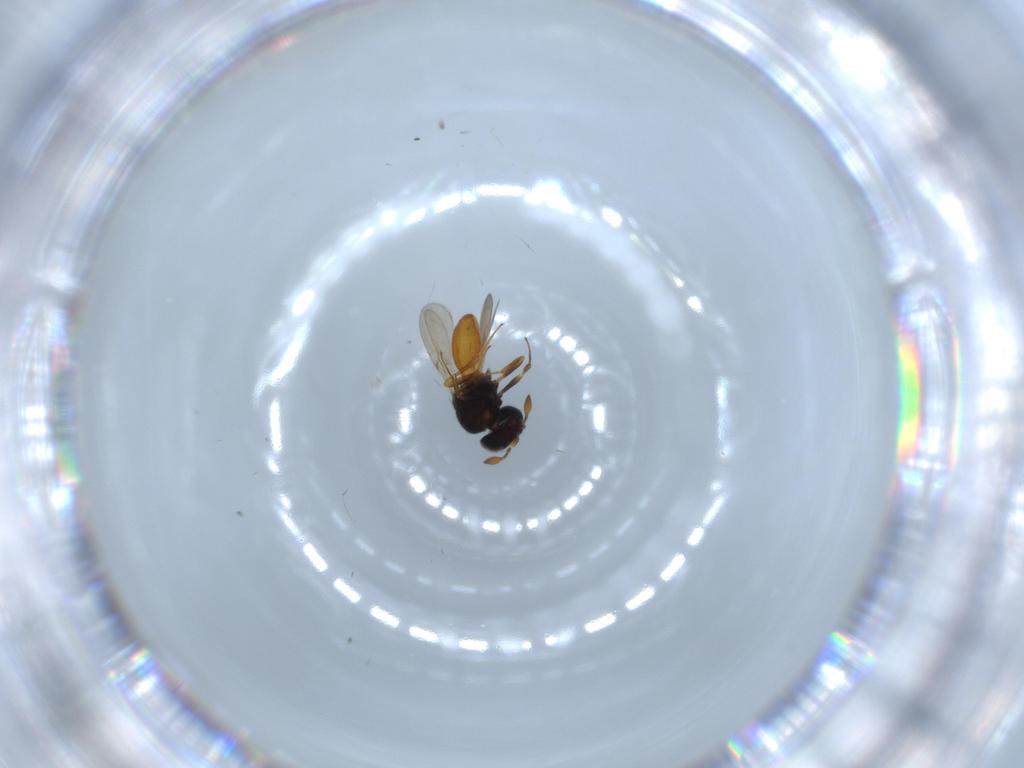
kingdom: Animalia
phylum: Arthropoda
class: Insecta
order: Hymenoptera
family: Scelionidae
